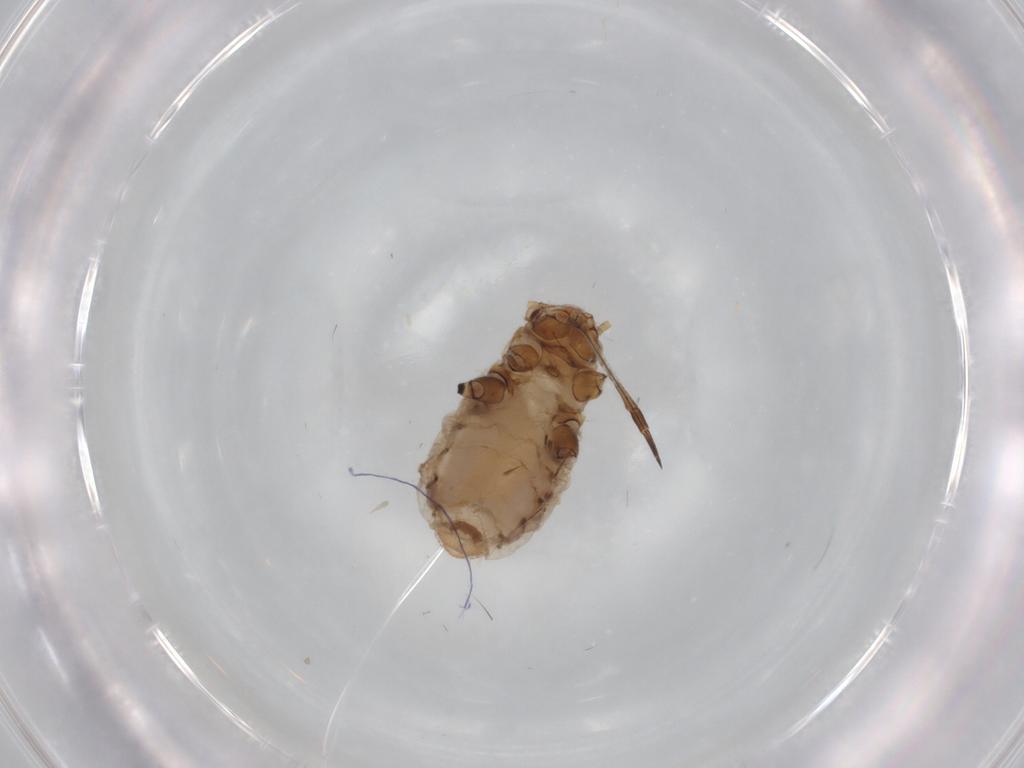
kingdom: Animalia
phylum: Arthropoda
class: Insecta
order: Hemiptera
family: Aphididae
